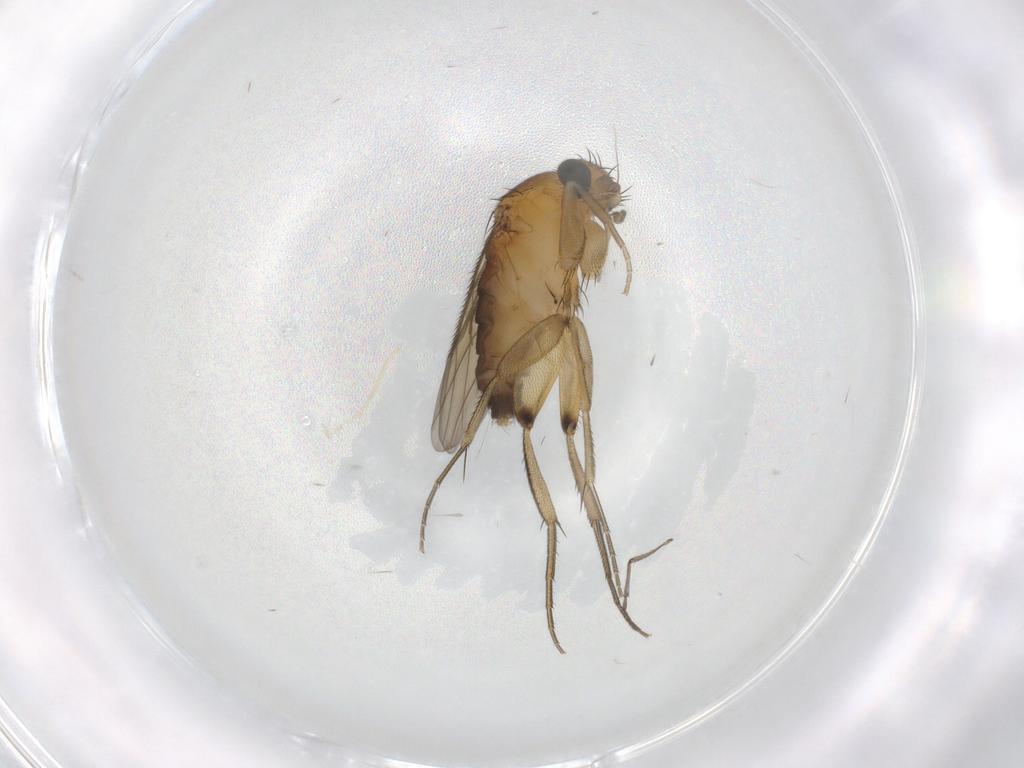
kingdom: Animalia
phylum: Arthropoda
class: Insecta
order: Diptera
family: Phoridae
